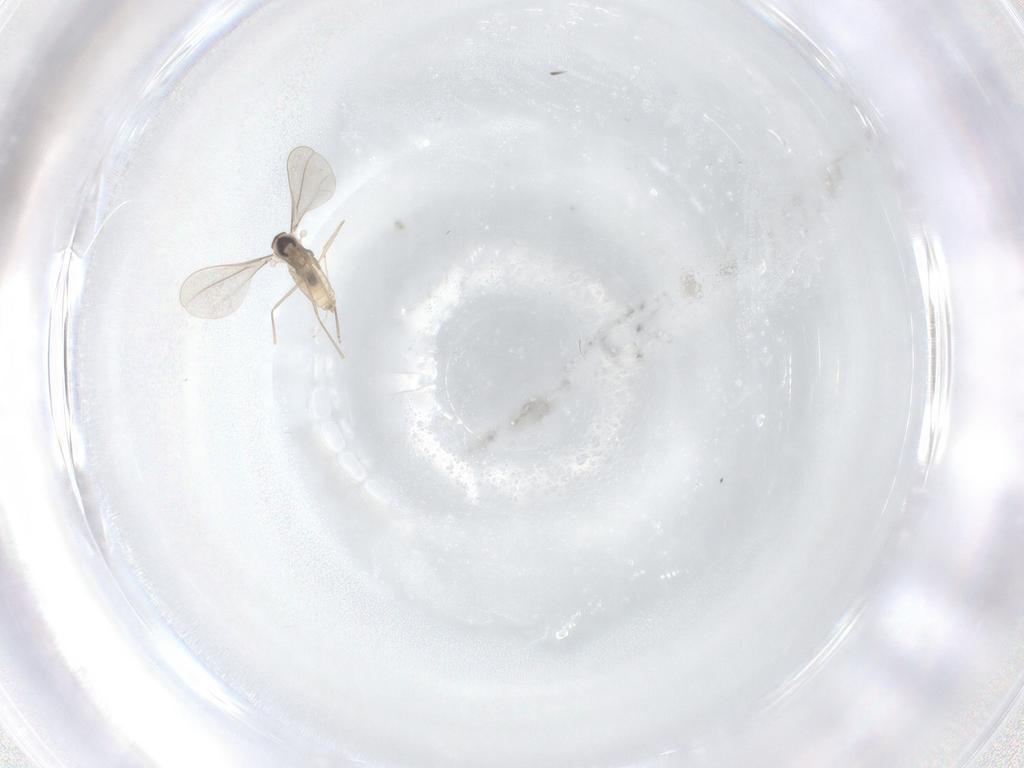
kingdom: Animalia
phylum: Arthropoda
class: Insecta
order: Diptera
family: Cecidomyiidae
